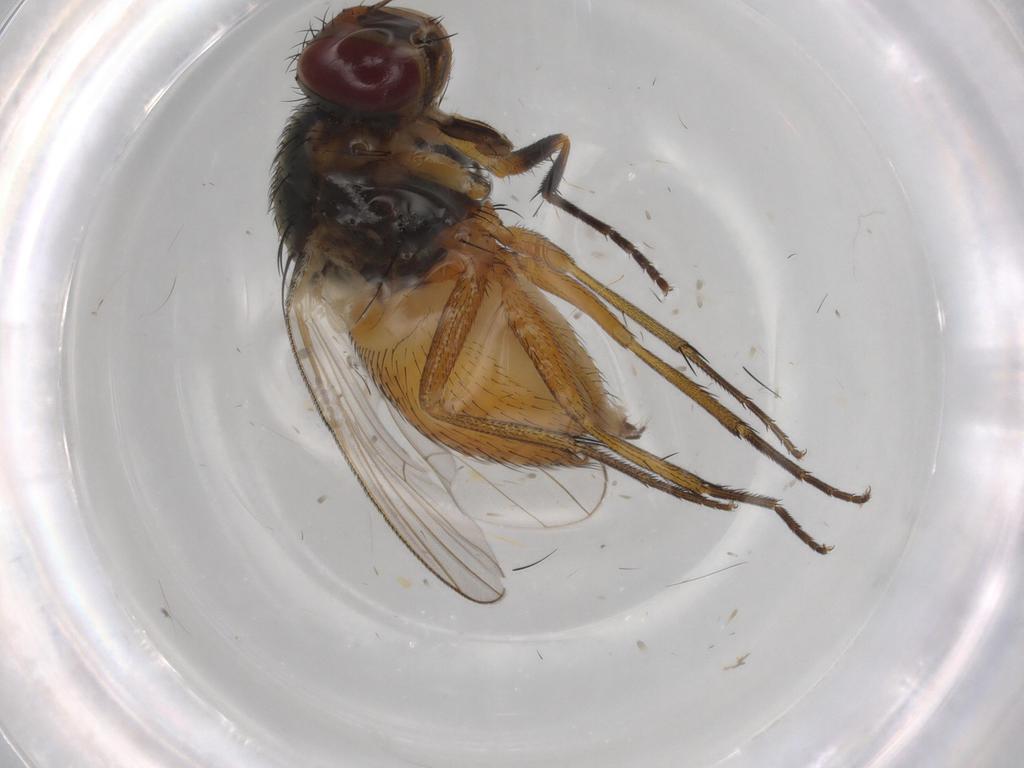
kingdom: Animalia
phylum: Arthropoda
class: Insecta
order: Diptera
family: Muscidae
